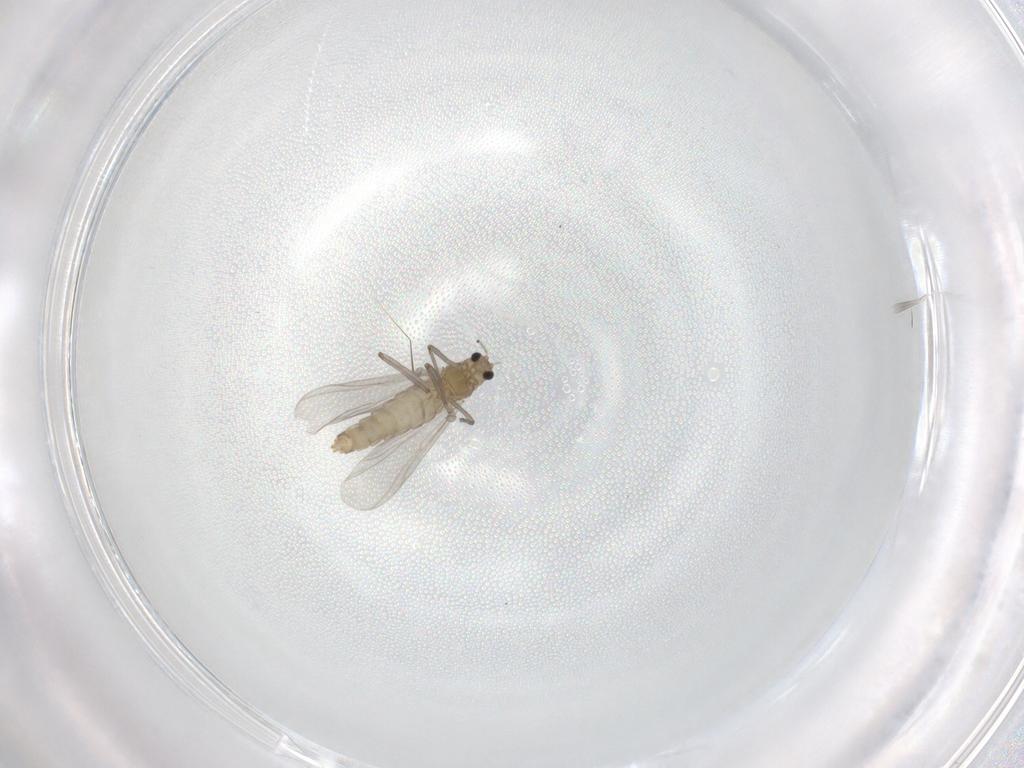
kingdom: Animalia
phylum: Arthropoda
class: Insecta
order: Diptera
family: Chironomidae
